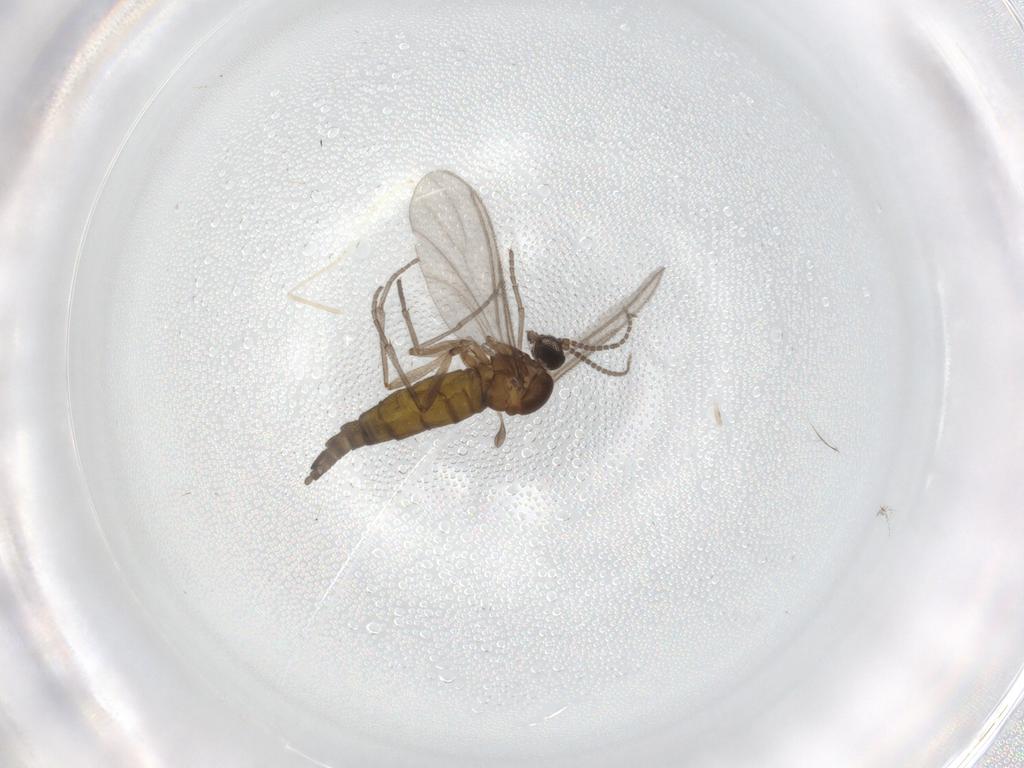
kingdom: Animalia
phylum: Arthropoda
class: Insecta
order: Diptera
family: Sciaridae
